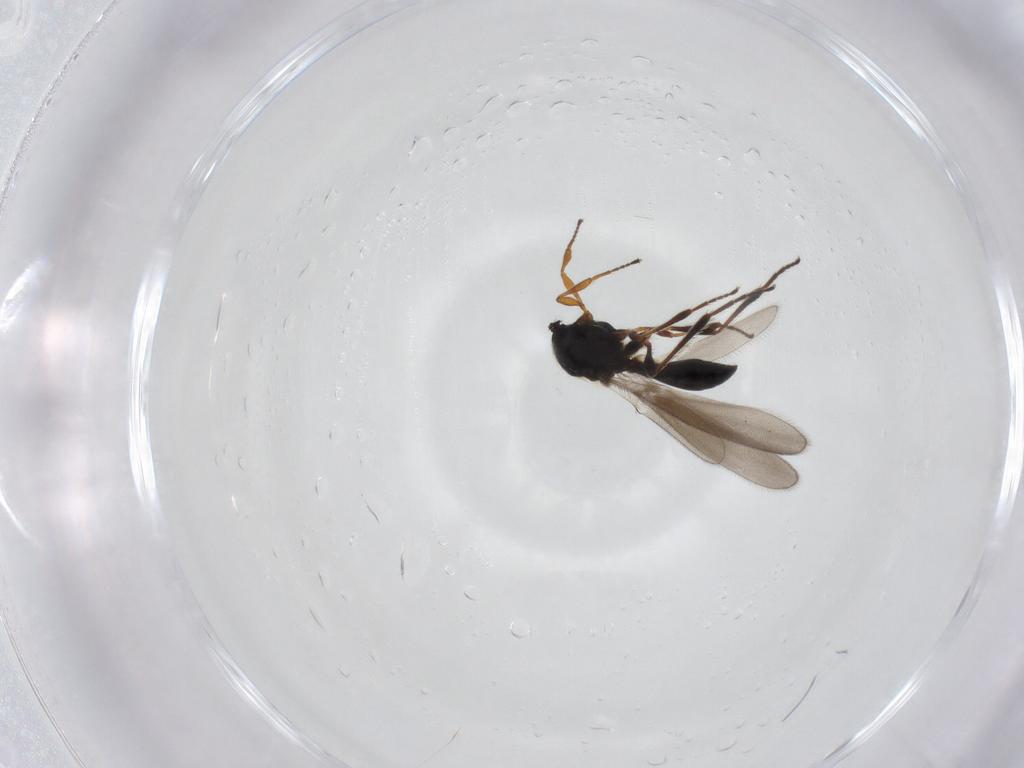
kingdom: Animalia
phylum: Arthropoda
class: Insecta
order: Hymenoptera
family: Platygastridae
